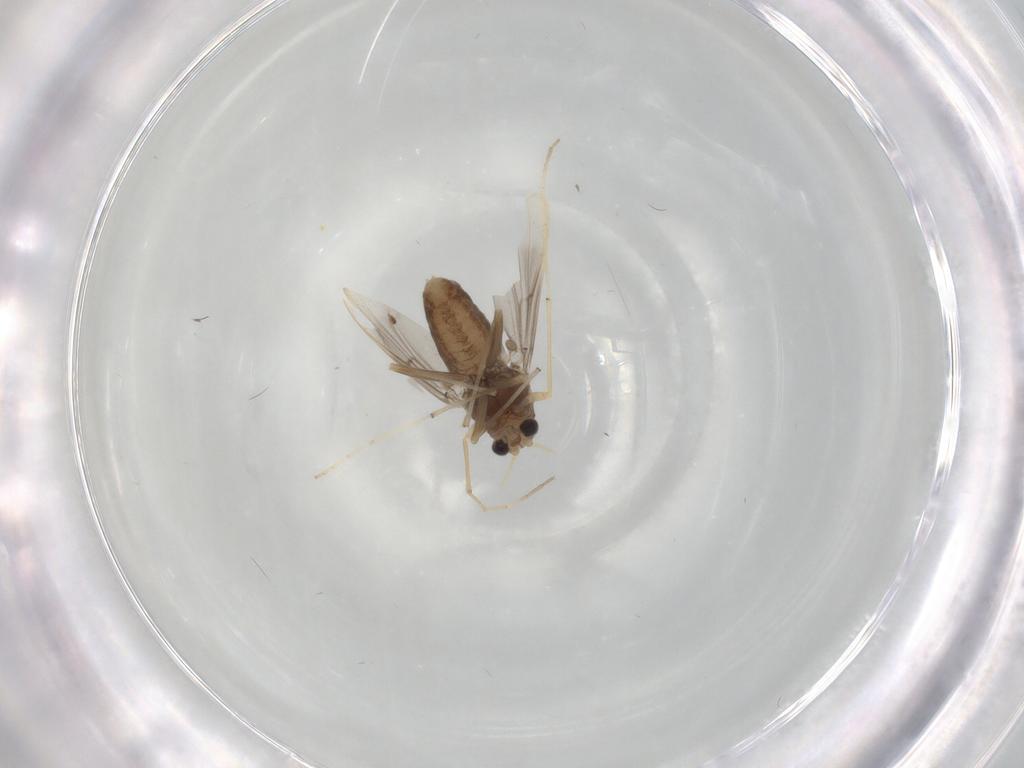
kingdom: Animalia
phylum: Arthropoda
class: Insecta
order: Diptera
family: Chironomidae
